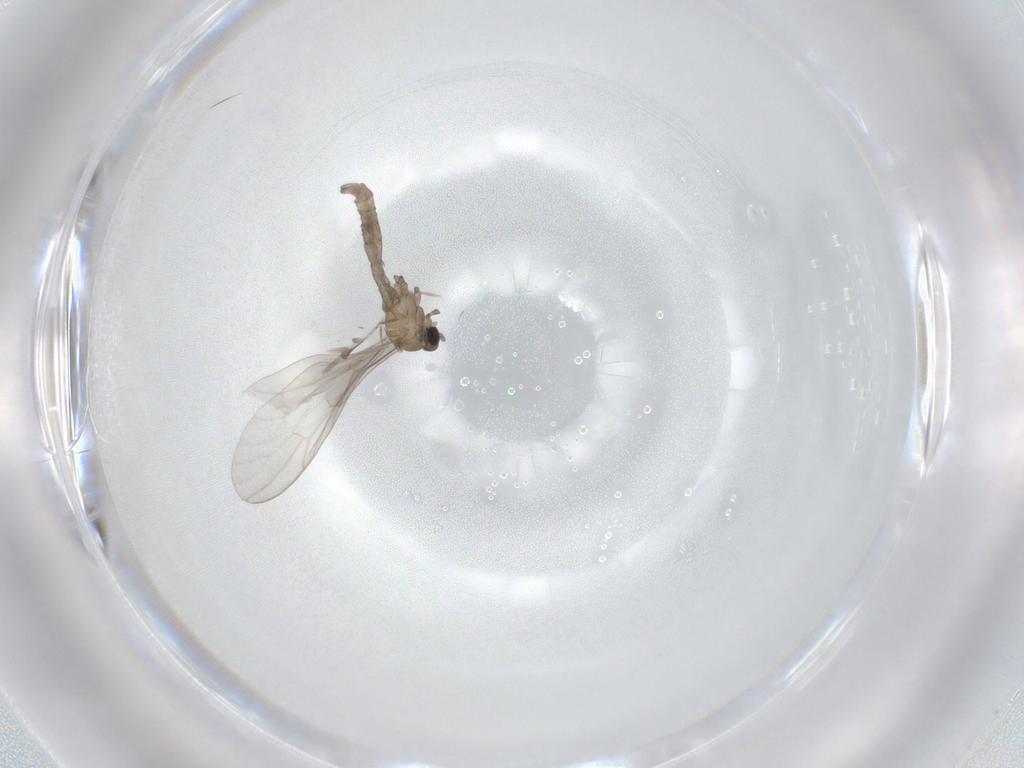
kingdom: Animalia
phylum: Arthropoda
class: Insecta
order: Diptera
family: Limoniidae
